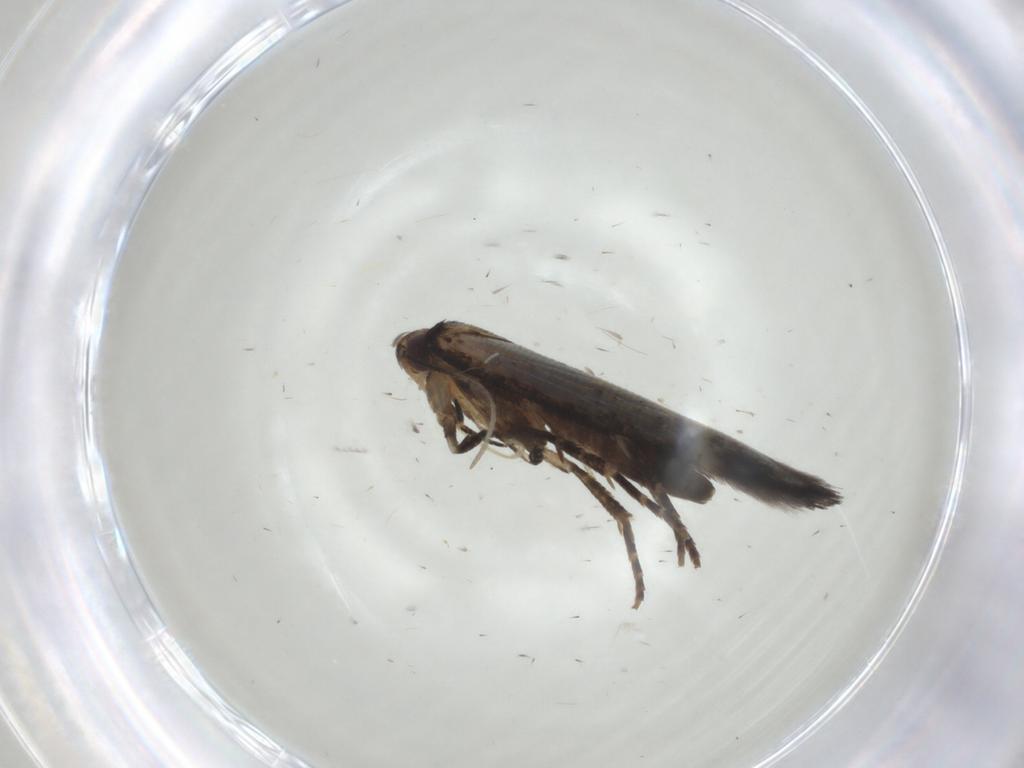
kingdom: Animalia
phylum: Arthropoda
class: Insecta
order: Lepidoptera
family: Cosmopterigidae
